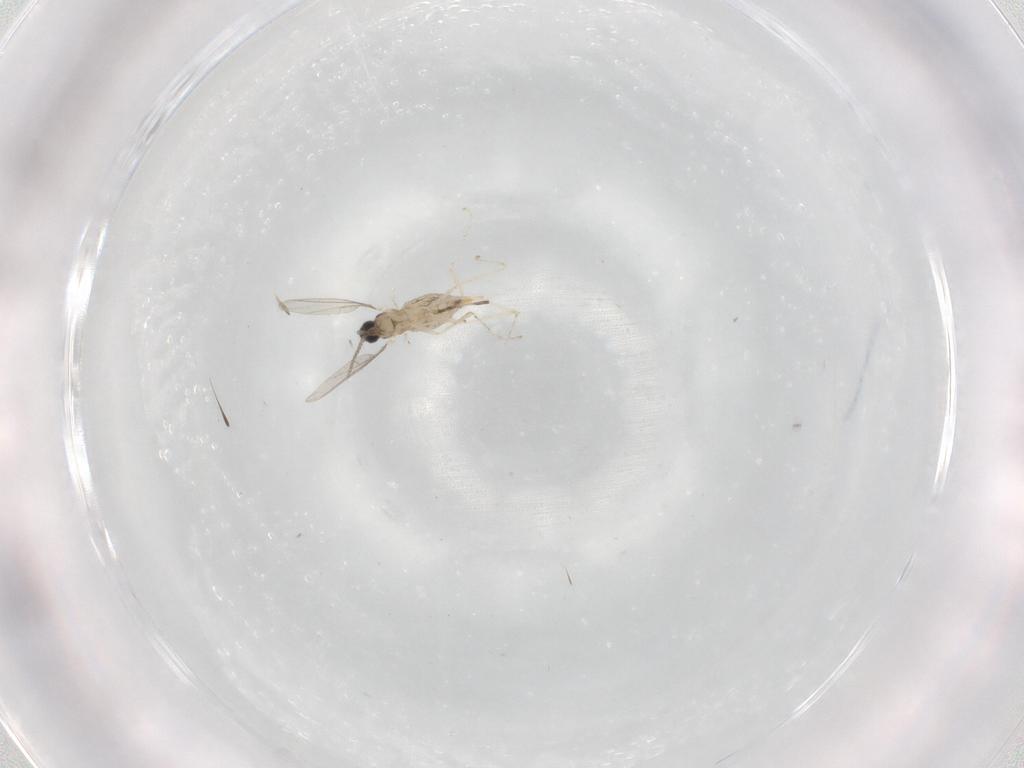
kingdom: Animalia
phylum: Arthropoda
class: Insecta
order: Diptera
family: Cecidomyiidae
